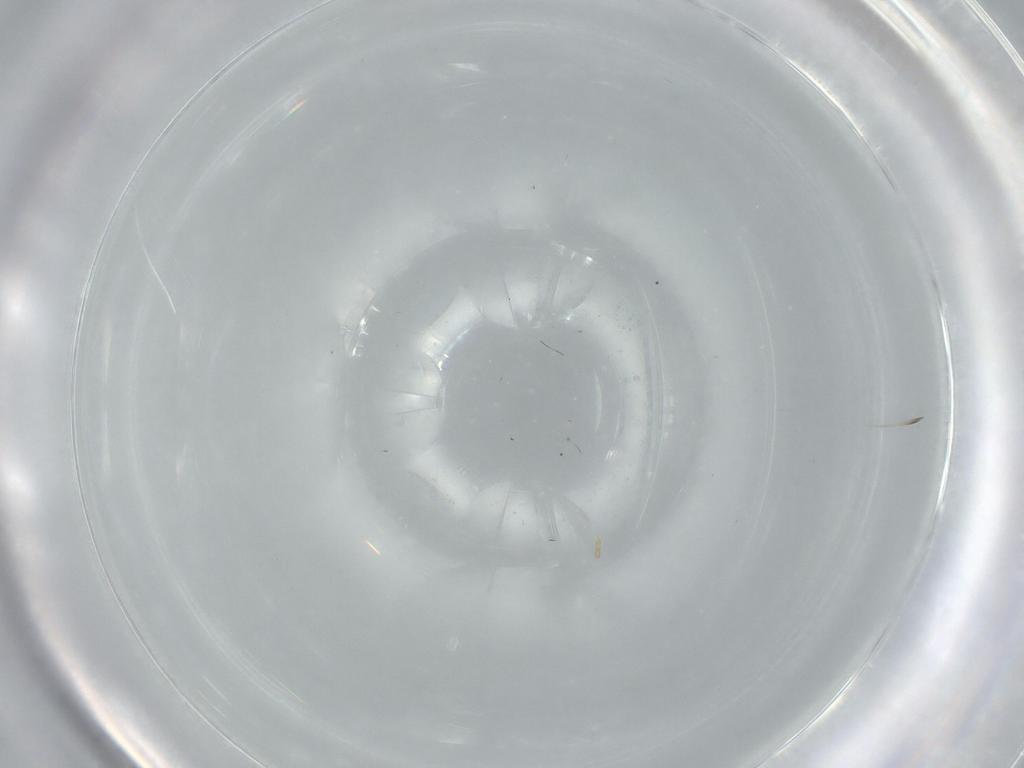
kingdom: Animalia
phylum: Arthropoda
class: Insecta
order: Diptera
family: Cecidomyiidae
